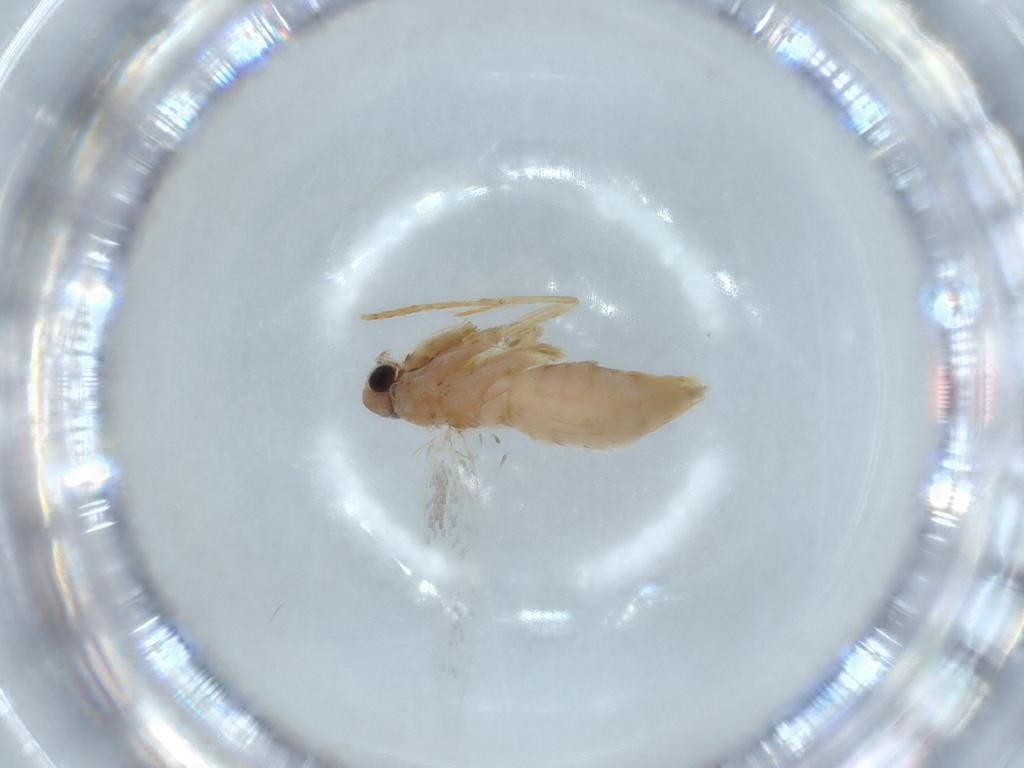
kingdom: Animalia
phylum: Arthropoda
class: Insecta
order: Lepidoptera
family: Tineidae
